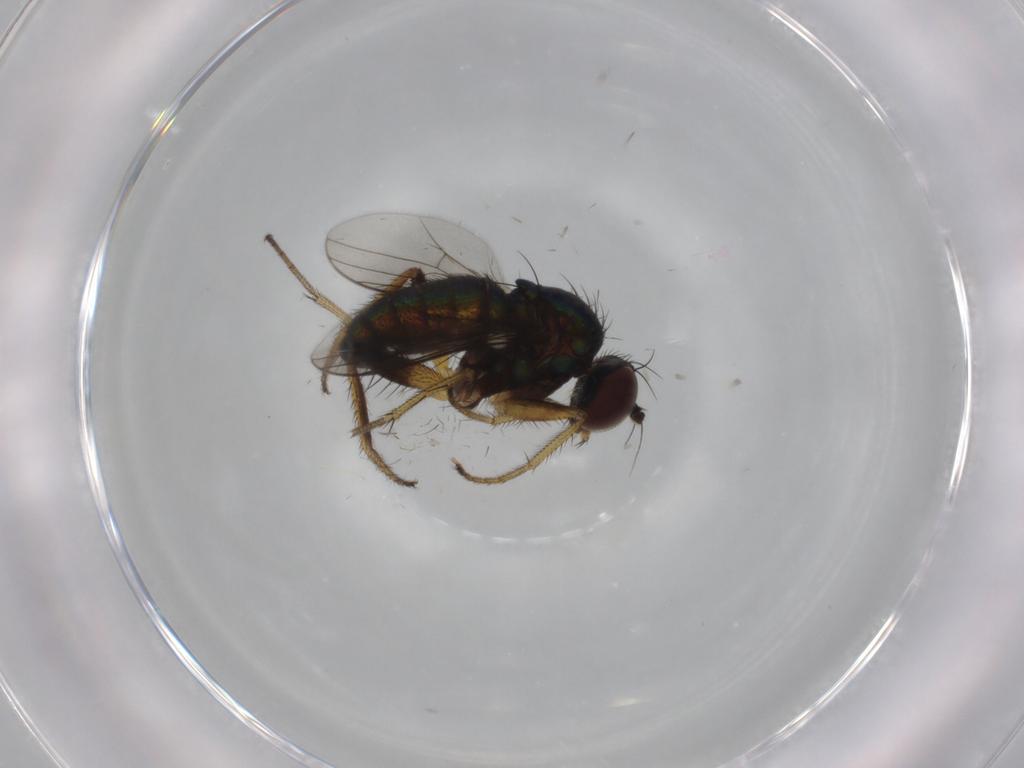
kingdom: Animalia
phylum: Arthropoda
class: Insecta
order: Diptera
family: Dolichopodidae
